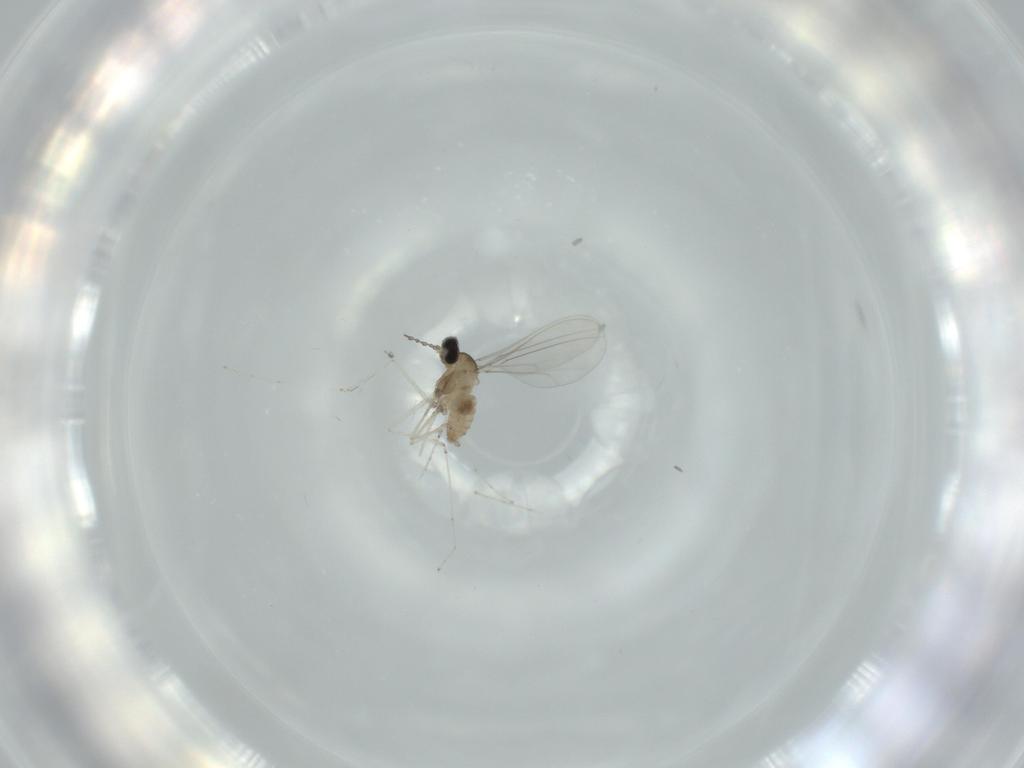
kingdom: Animalia
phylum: Arthropoda
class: Insecta
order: Diptera
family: Cecidomyiidae
